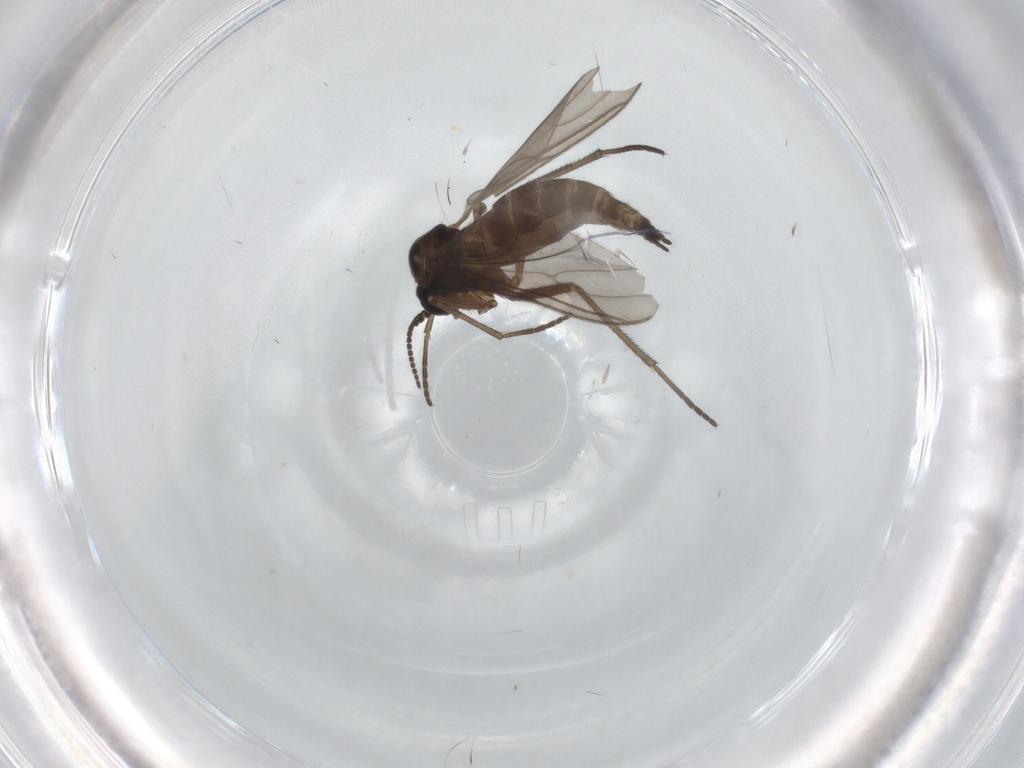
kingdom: Animalia
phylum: Arthropoda
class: Insecta
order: Diptera
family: Sciaridae
